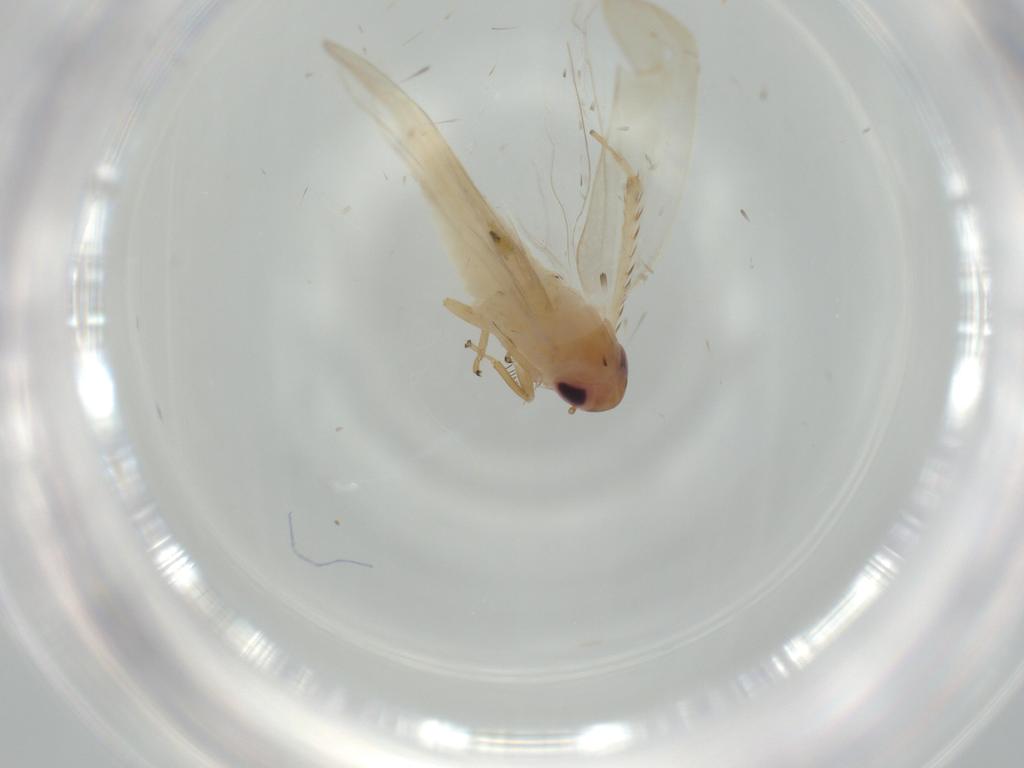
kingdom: Animalia
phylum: Arthropoda
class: Insecta
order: Hemiptera
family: Cicadellidae
